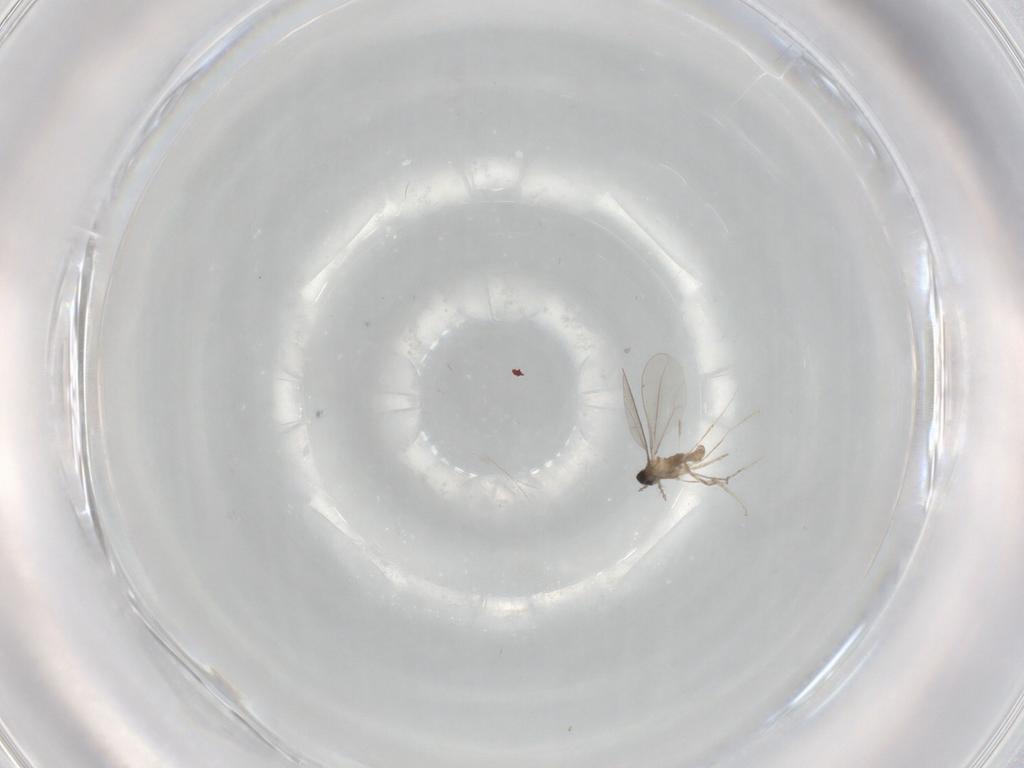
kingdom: Animalia
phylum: Arthropoda
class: Insecta
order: Diptera
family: Cecidomyiidae
